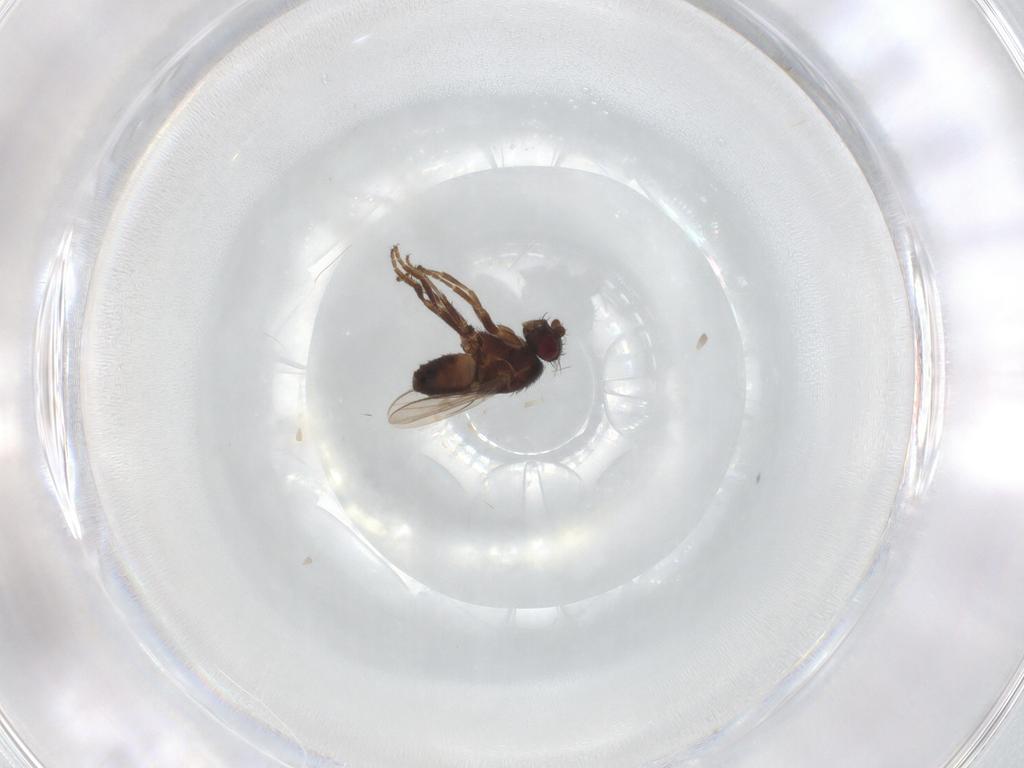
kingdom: Animalia
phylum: Arthropoda
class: Insecta
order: Diptera
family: Sphaeroceridae
